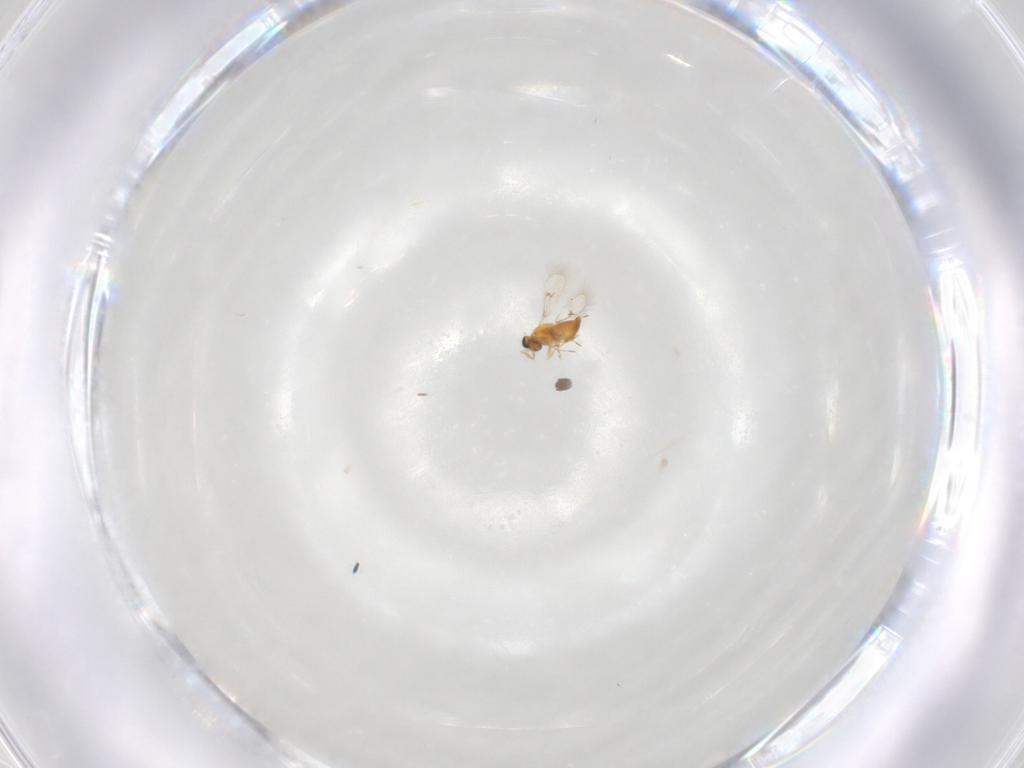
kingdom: Animalia
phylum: Arthropoda
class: Insecta
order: Hymenoptera
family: Trichogrammatidae
